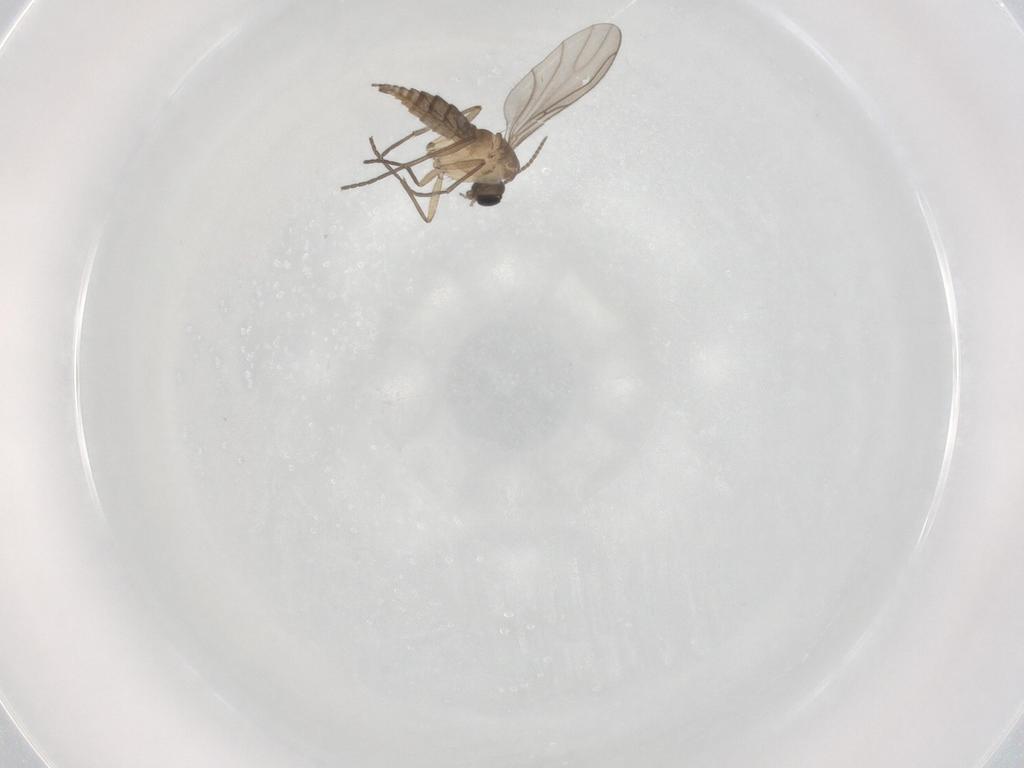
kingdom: Animalia
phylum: Arthropoda
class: Insecta
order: Diptera
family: Sciaridae
